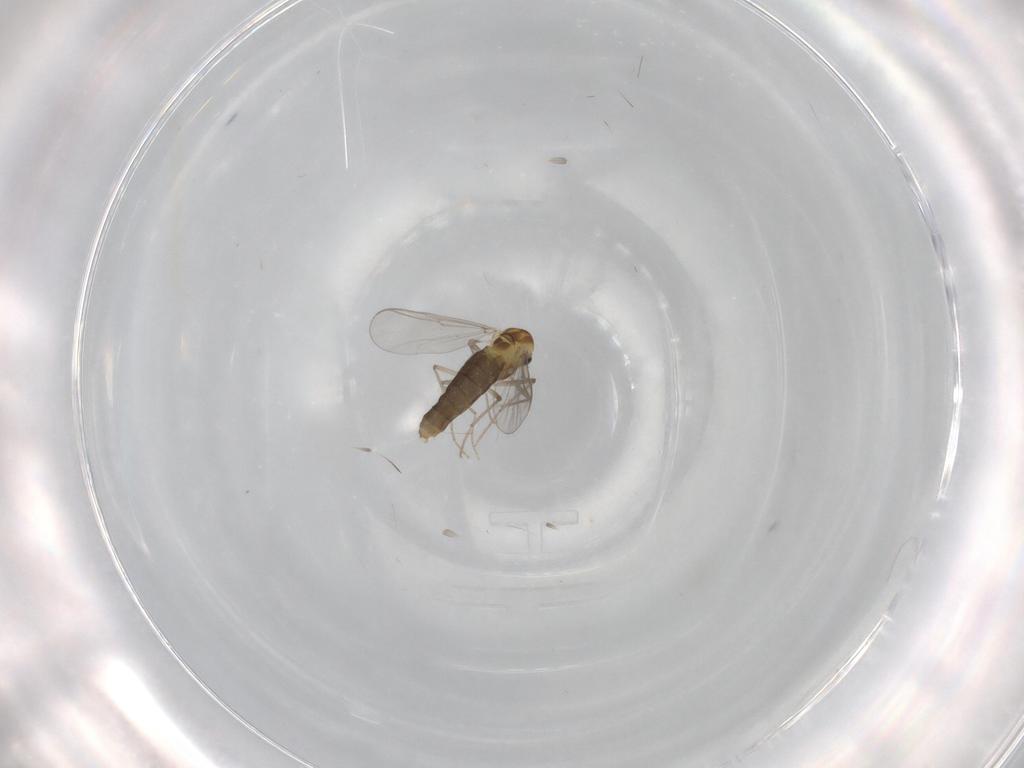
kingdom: Animalia
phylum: Arthropoda
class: Insecta
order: Diptera
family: Chironomidae
